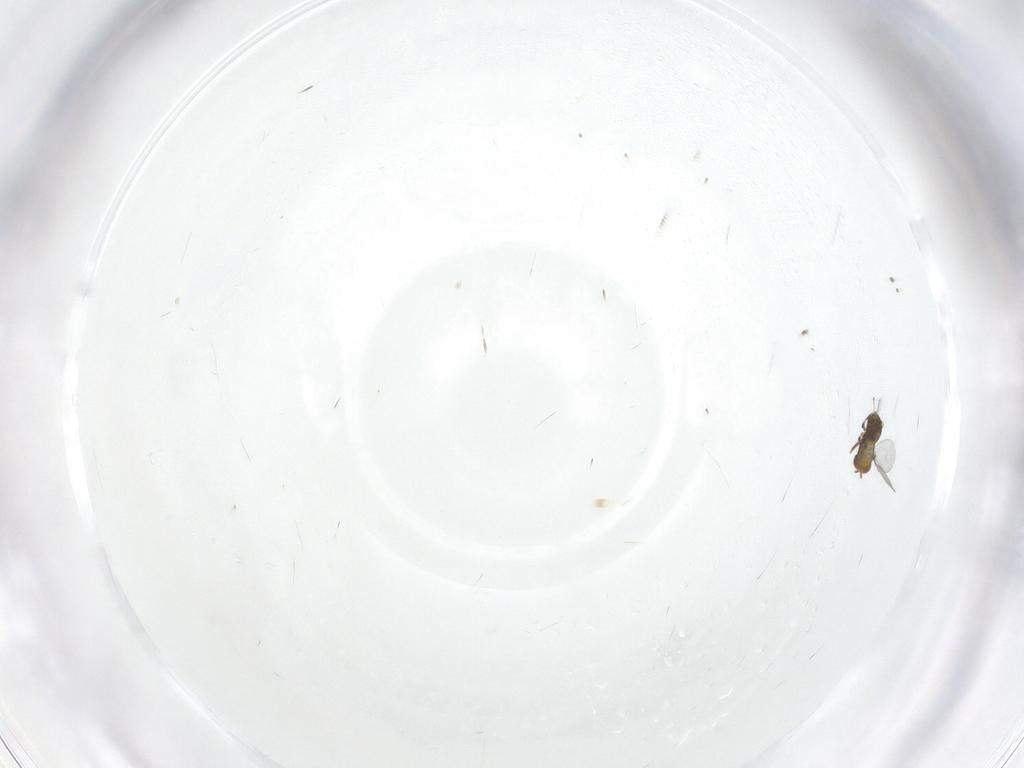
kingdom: Animalia
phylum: Arthropoda
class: Insecta
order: Hymenoptera
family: Trichogrammatidae
